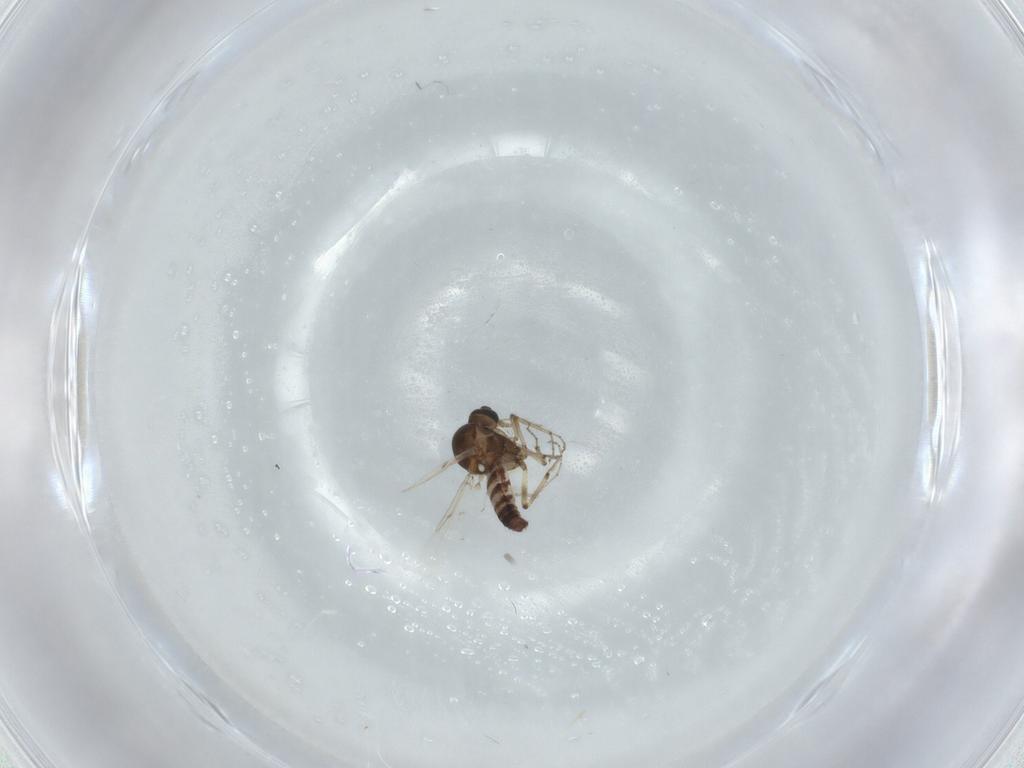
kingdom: Animalia
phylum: Arthropoda
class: Insecta
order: Diptera
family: Ceratopogonidae
